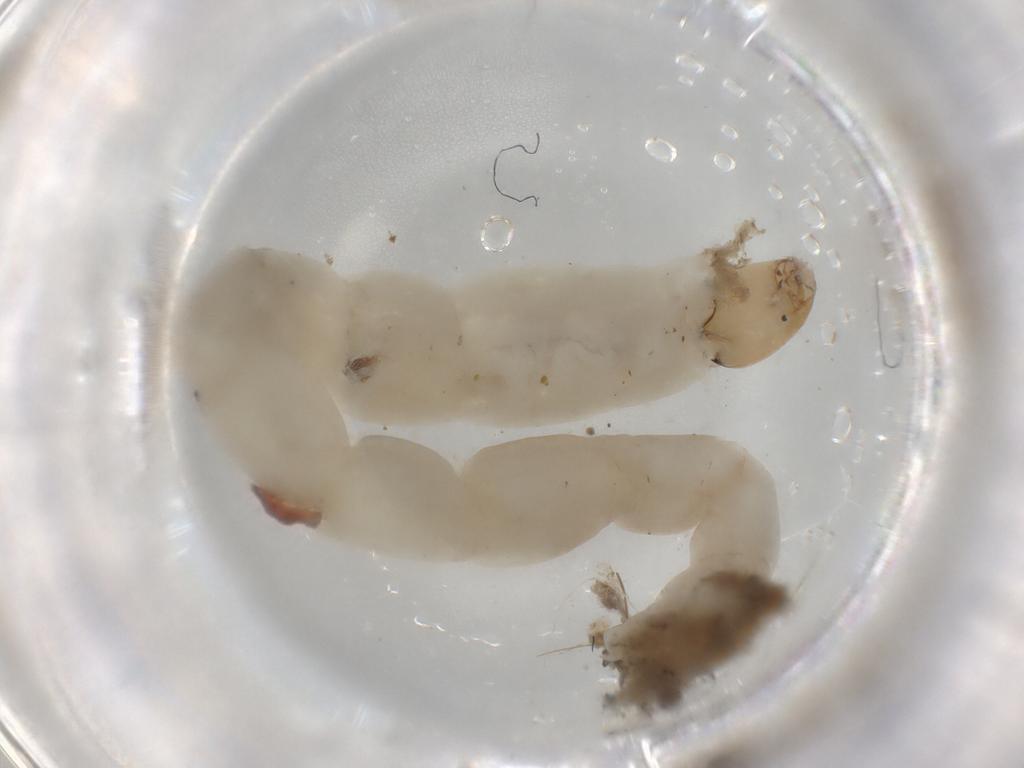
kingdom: Animalia
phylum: Arthropoda
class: Insecta
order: Diptera
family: Chironomidae
